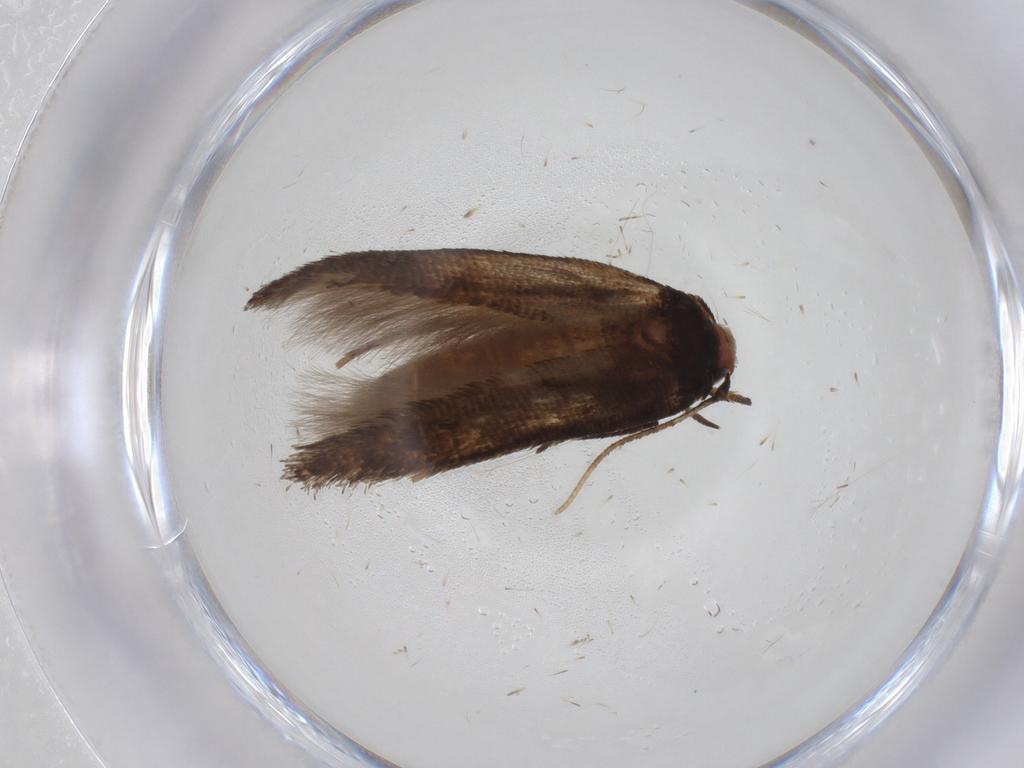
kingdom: Animalia
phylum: Arthropoda
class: Insecta
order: Lepidoptera
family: Cosmopterigidae
